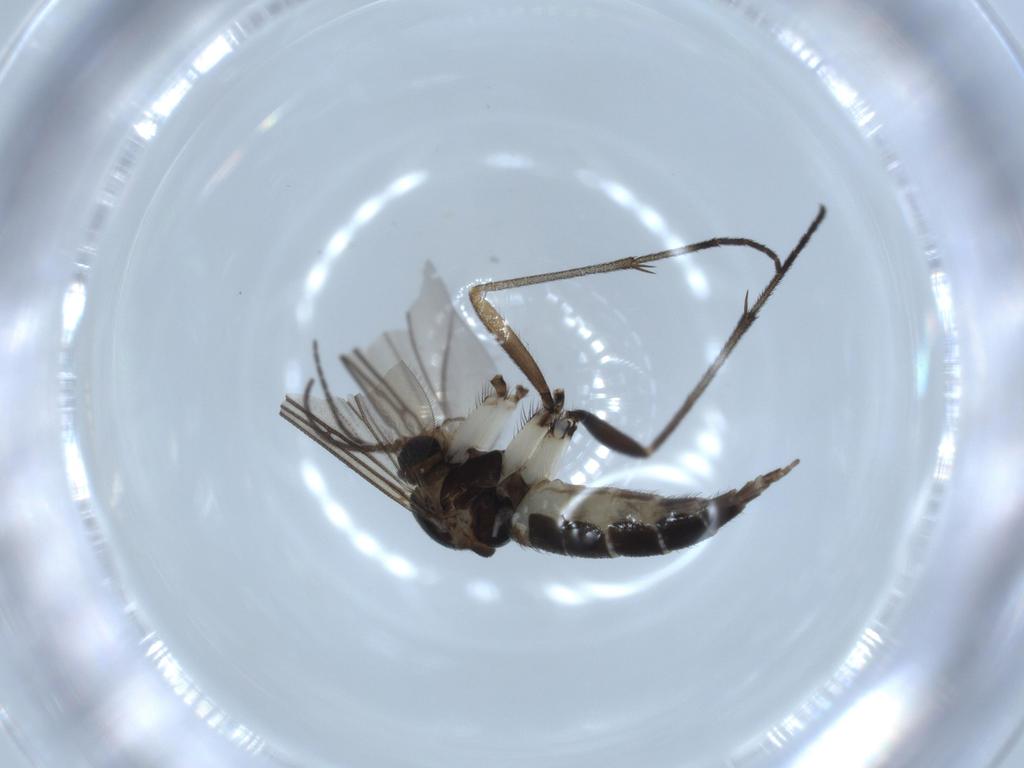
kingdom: Animalia
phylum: Arthropoda
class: Insecta
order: Diptera
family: Sciaridae
